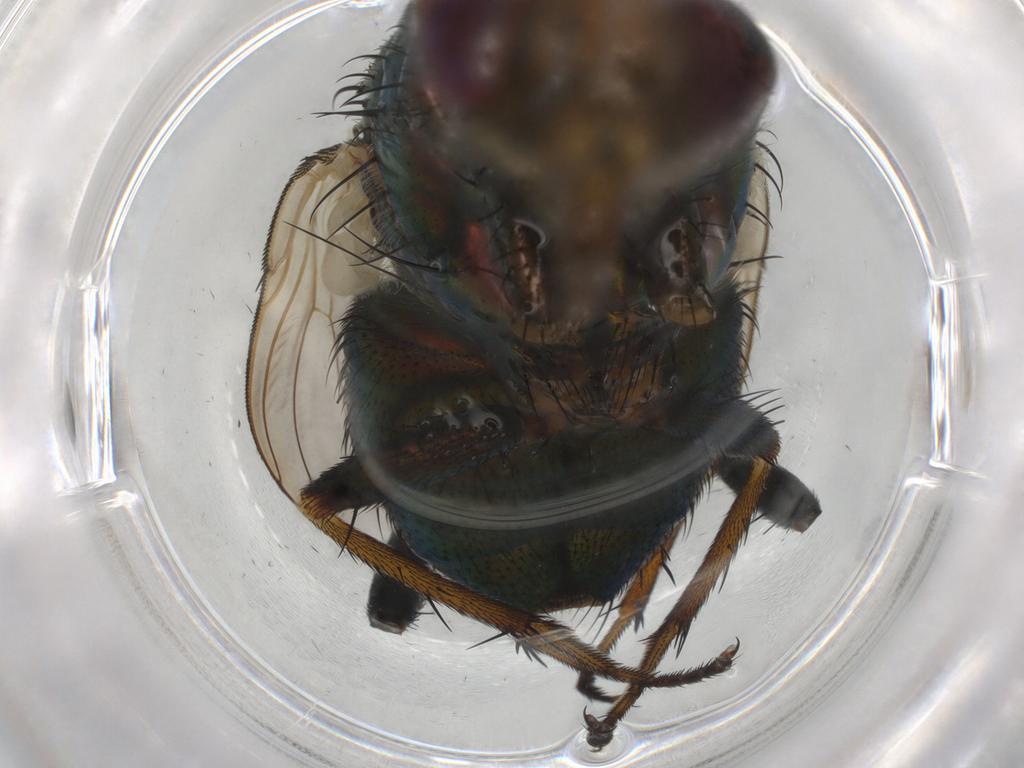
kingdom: Animalia
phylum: Arthropoda
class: Insecta
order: Diptera
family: Calliphoridae
